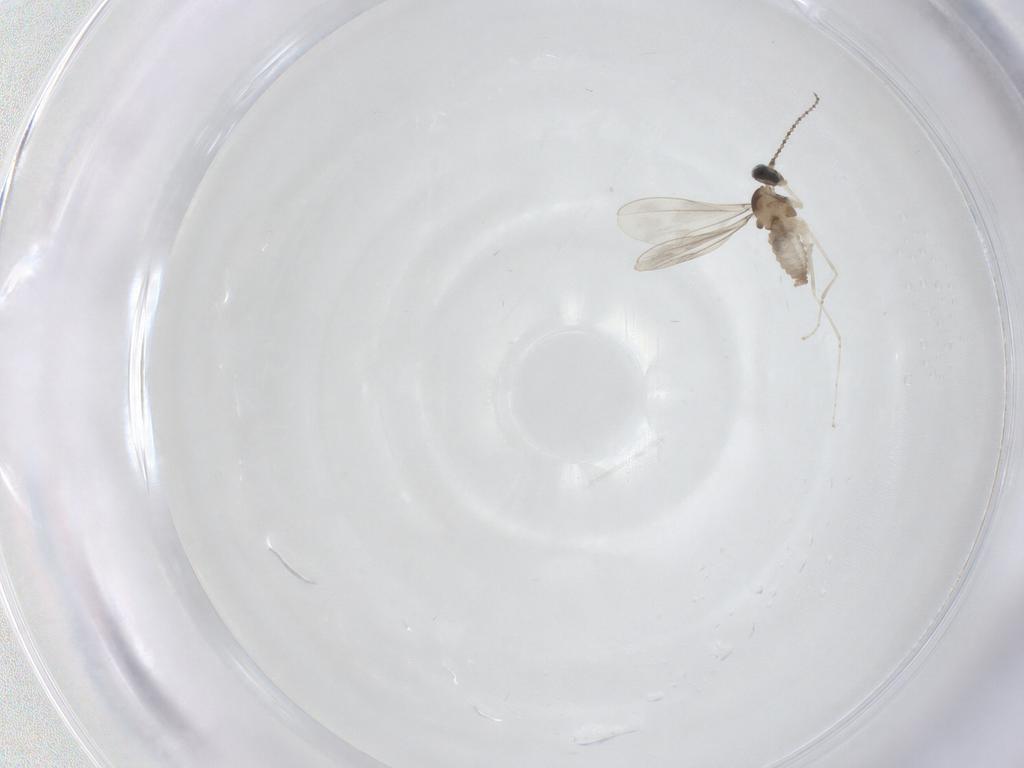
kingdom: Animalia
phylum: Arthropoda
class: Insecta
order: Diptera
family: Cecidomyiidae
